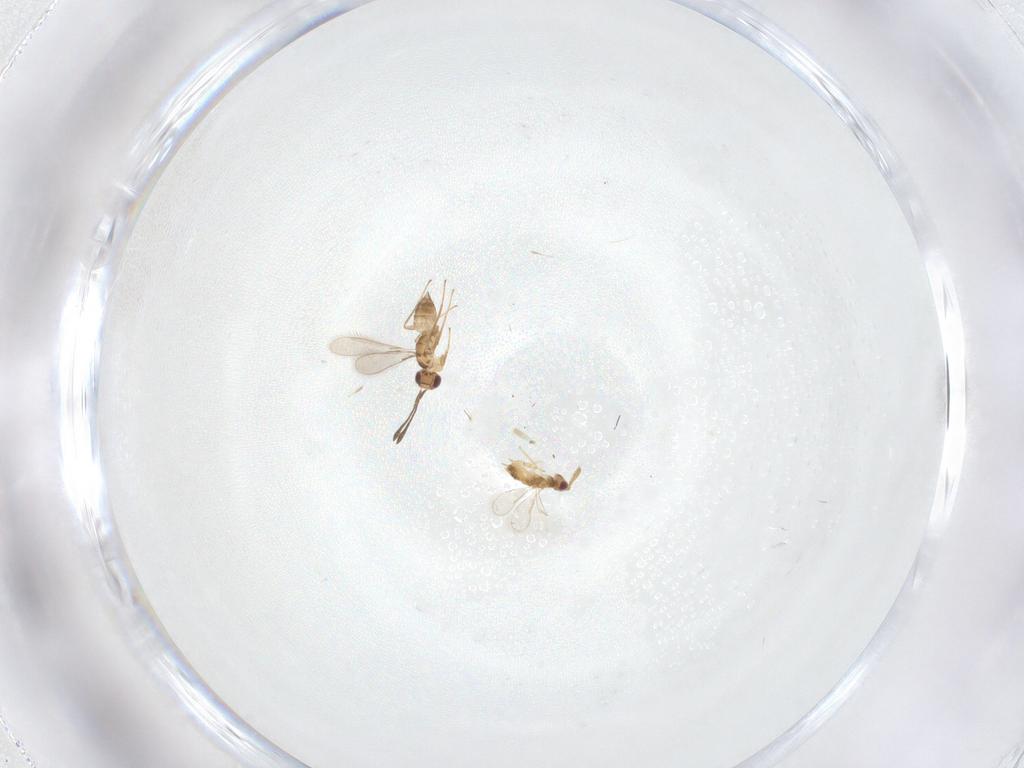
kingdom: Animalia
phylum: Arthropoda
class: Insecta
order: Hymenoptera
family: Aphelinidae
